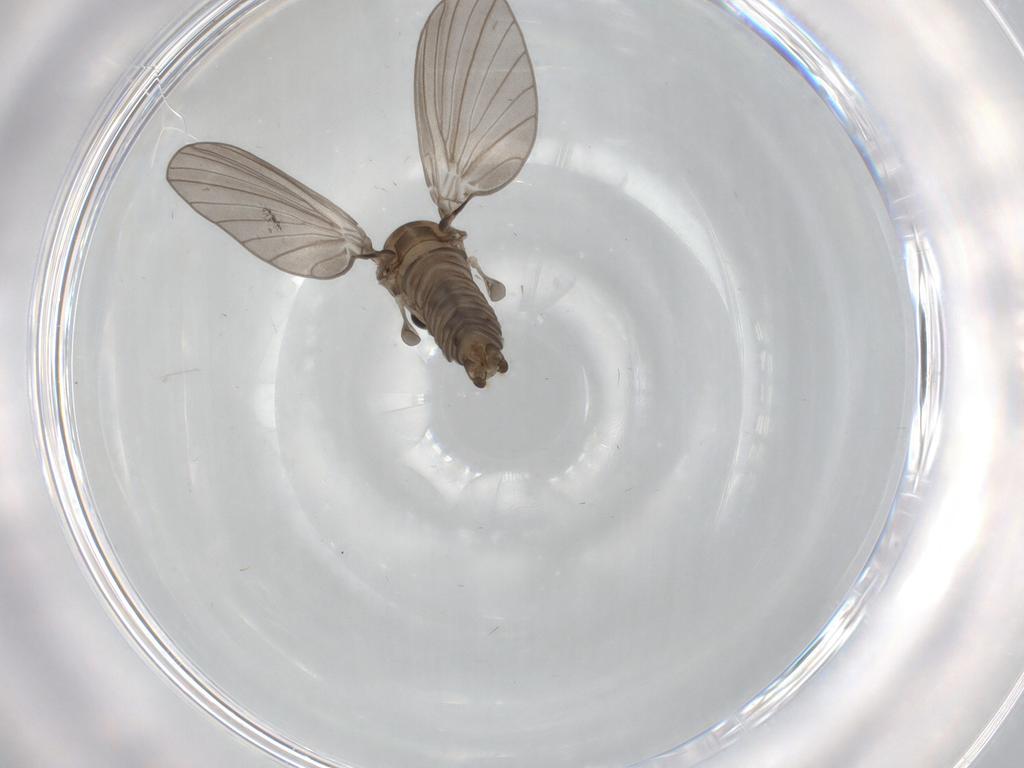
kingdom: Animalia
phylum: Arthropoda
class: Insecta
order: Diptera
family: Psychodidae
